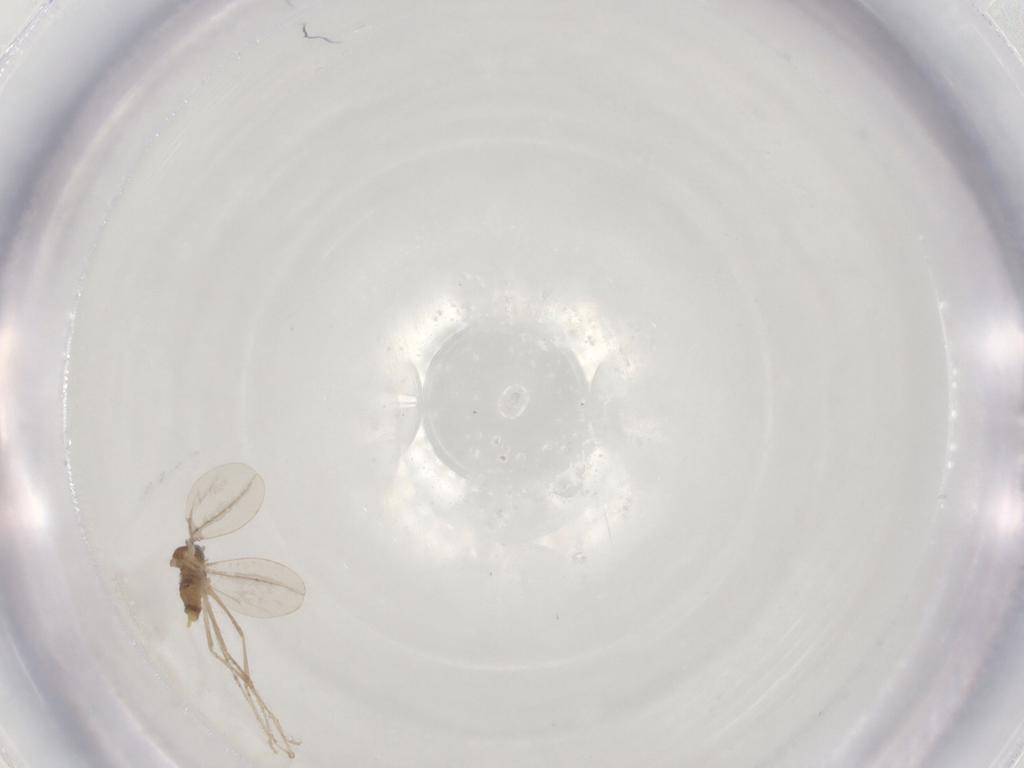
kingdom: Animalia
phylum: Arthropoda
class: Insecta
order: Diptera
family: Cecidomyiidae
